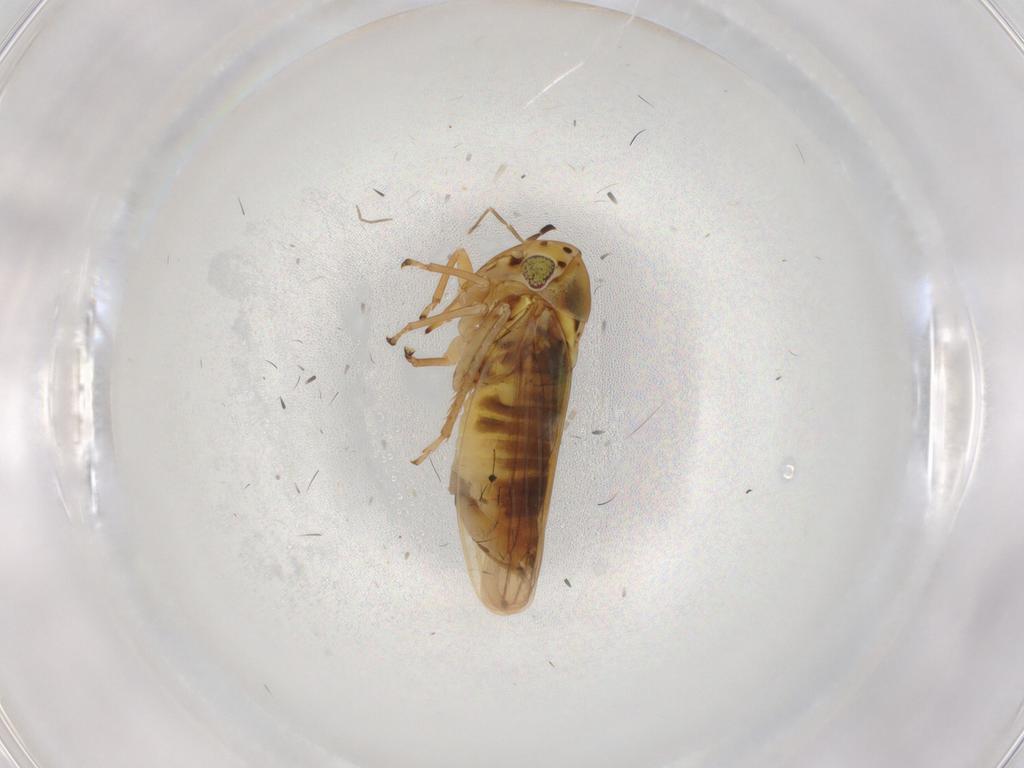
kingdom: Animalia
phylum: Arthropoda
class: Insecta
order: Hemiptera
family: Cicadellidae
